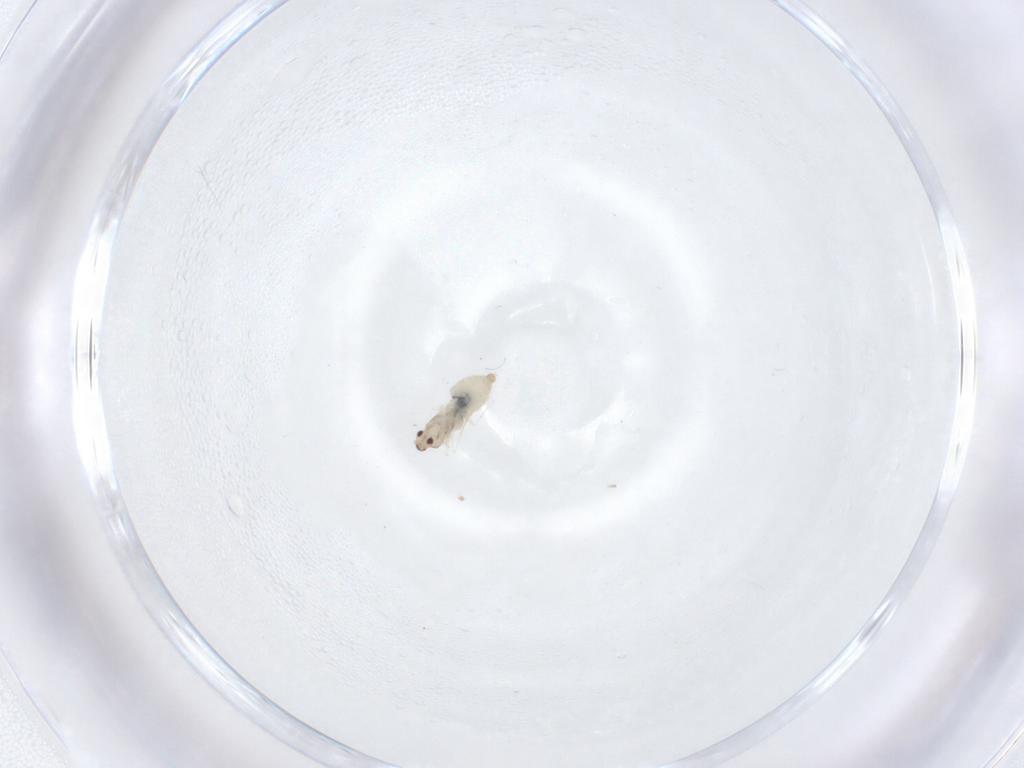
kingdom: Animalia
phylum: Arthropoda
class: Insecta
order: Diptera
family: Cecidomyiidae
